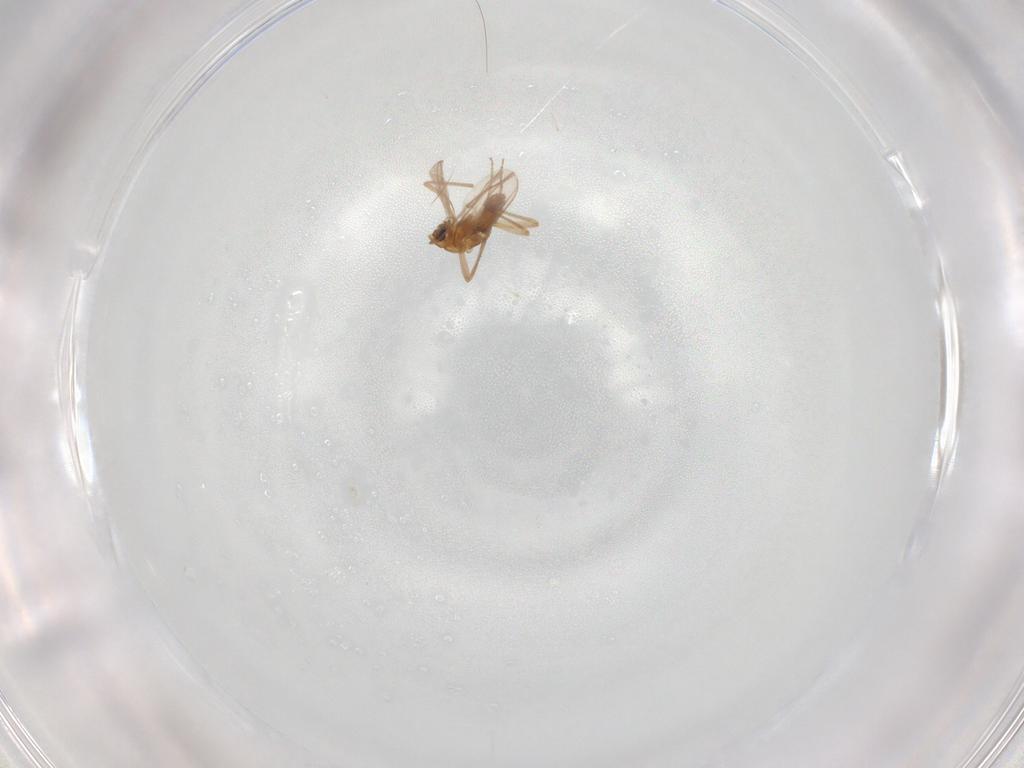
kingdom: Animalia
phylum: Arthropoda
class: Insecta
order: Diptera
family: Chironomidae
